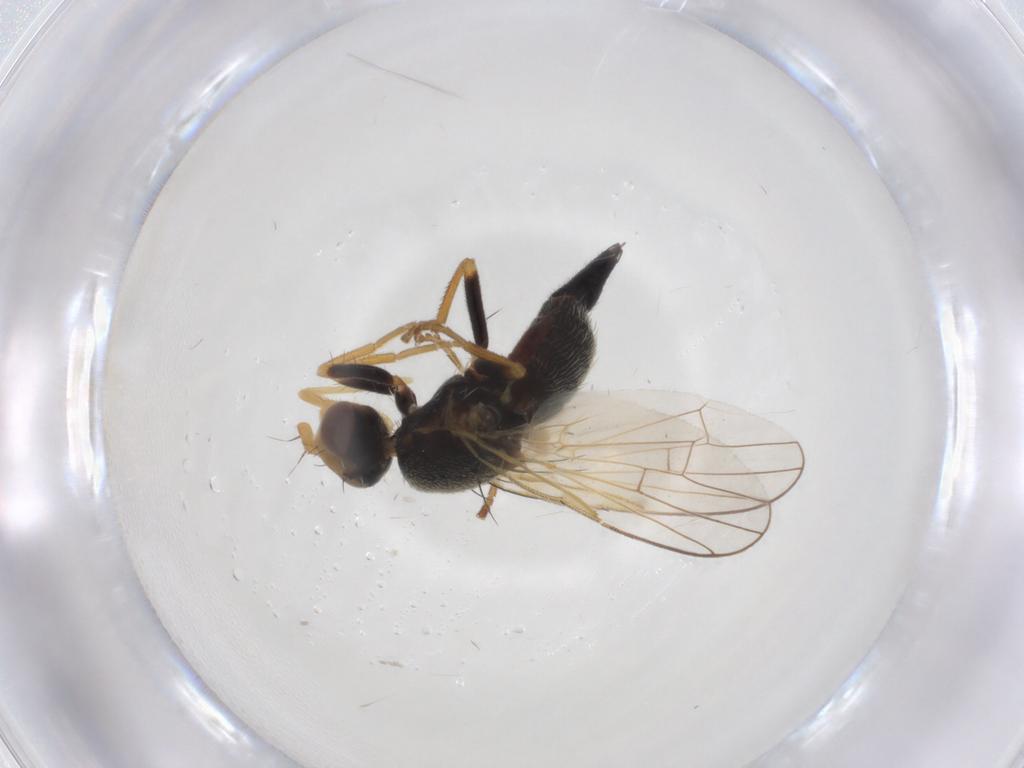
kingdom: Animalia
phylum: Arthropoda
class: Insecta
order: Diptera
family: Tephritidae
